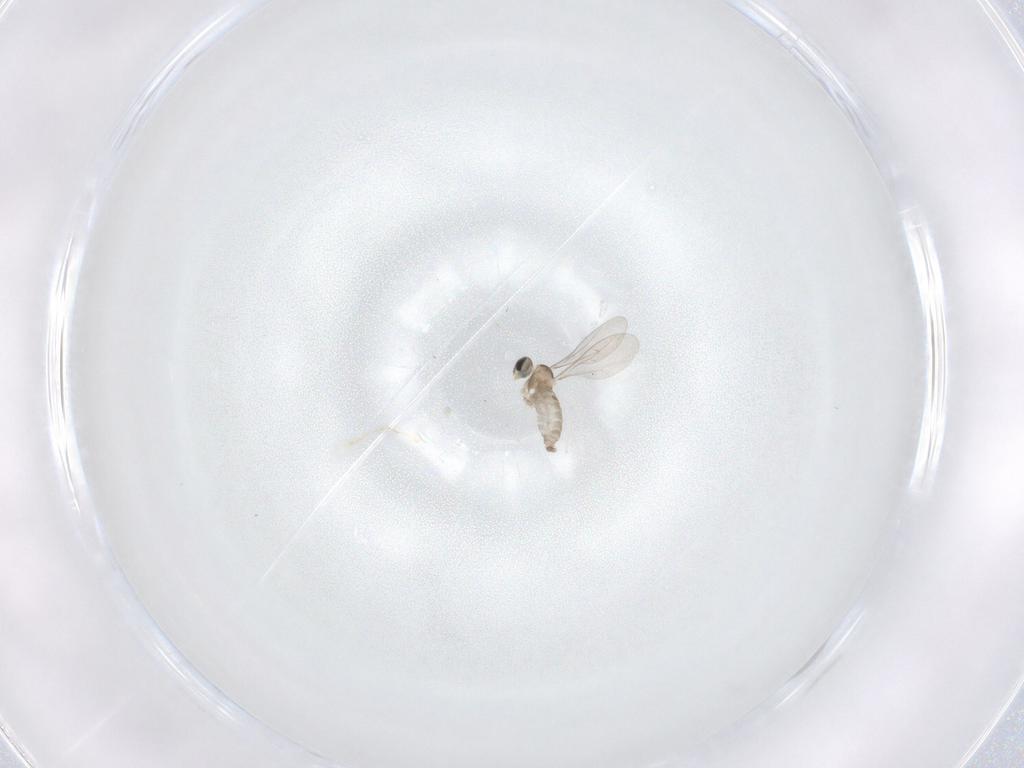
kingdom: Animalia
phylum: Arthropoda
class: Insecta
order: Diptera
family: Cecidomyiidae
